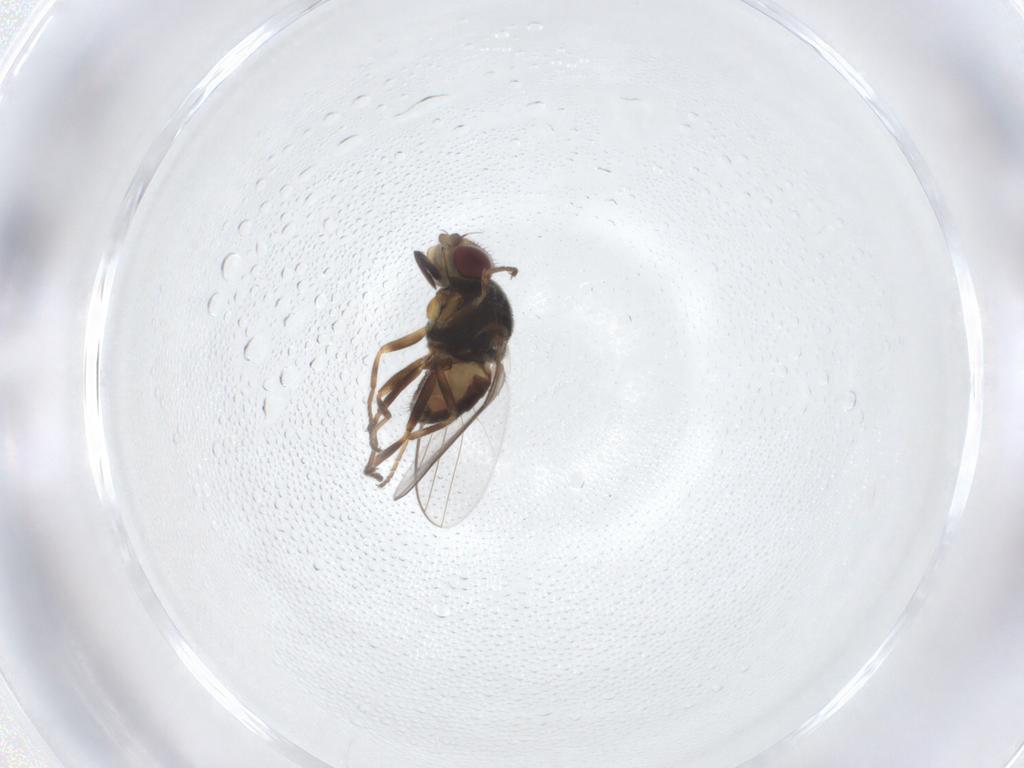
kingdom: Animalia
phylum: Arthropoda
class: Insecta
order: Diptera
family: Chloropidae
